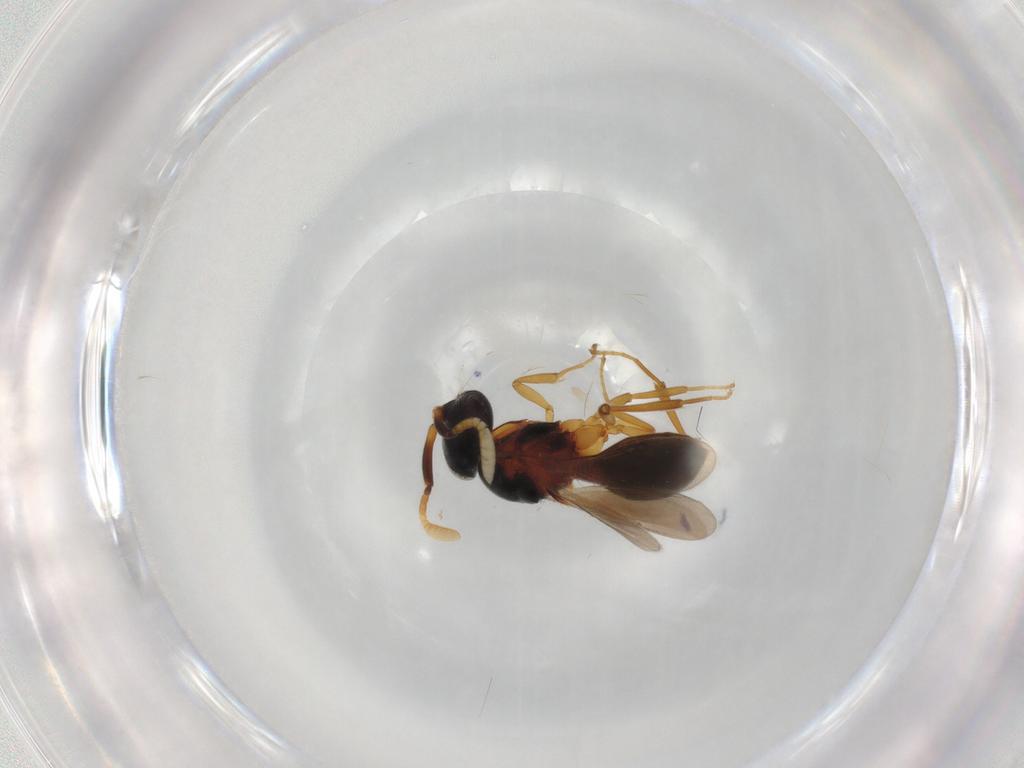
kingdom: Animalia
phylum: Arthropoda
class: Insecta
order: Hymenoptera
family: Scelionidae
